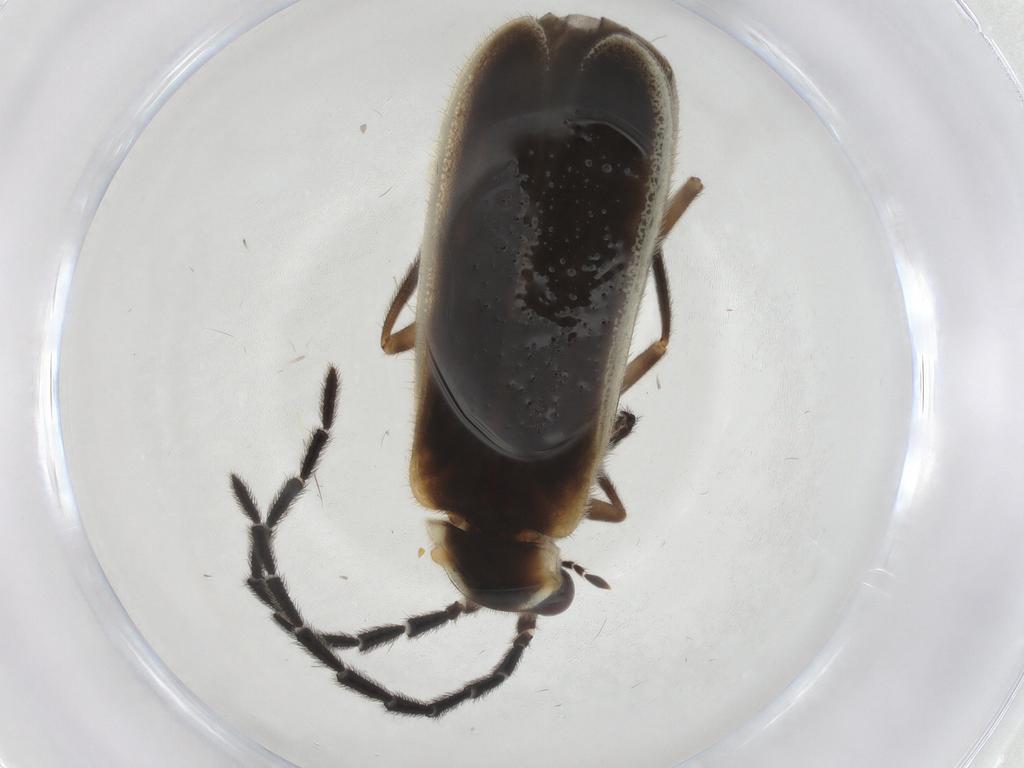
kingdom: Animalia
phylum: Arthropoda
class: Insecta
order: Coleoptera
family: Cantharidae
